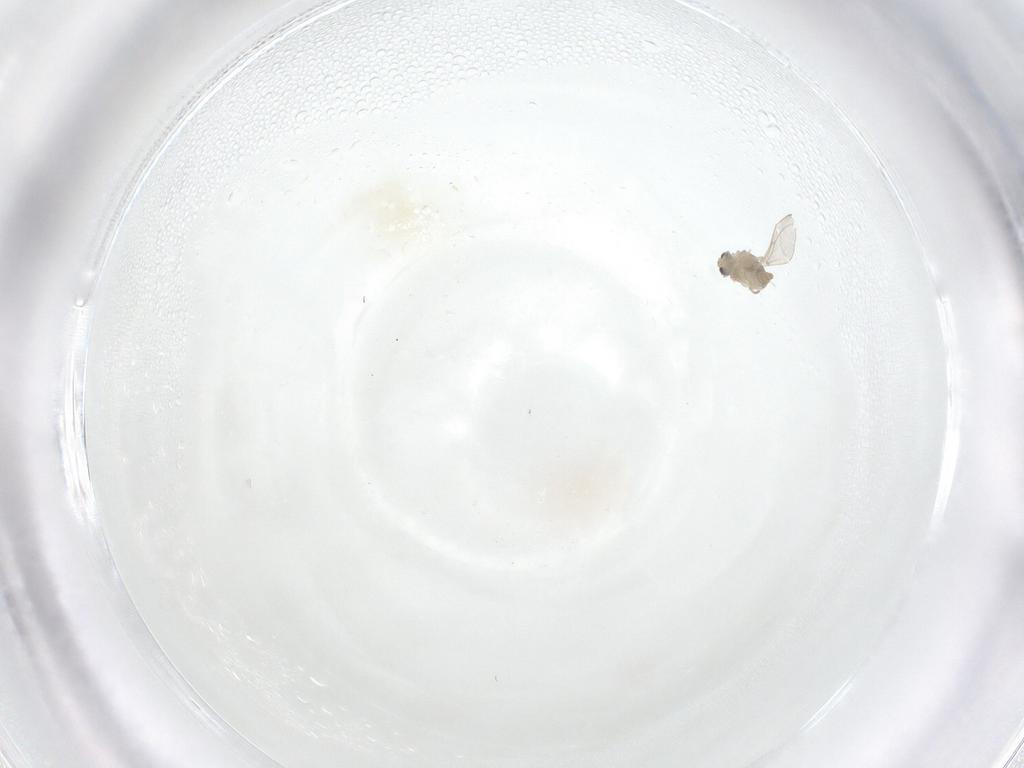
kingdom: Animalia
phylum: Arthropoda
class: Insecta
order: Diptera
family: Cecidomyiidae
